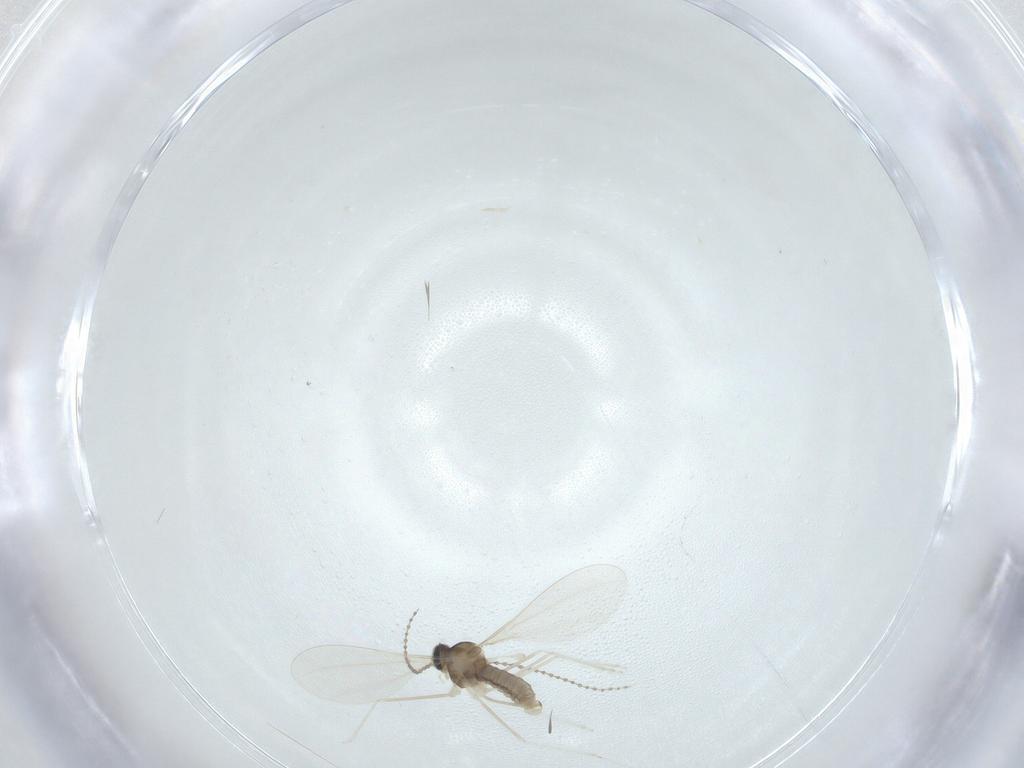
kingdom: Animalia
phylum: Arthropoda
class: Insecta
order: Diptera
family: Cecidomyiidae
